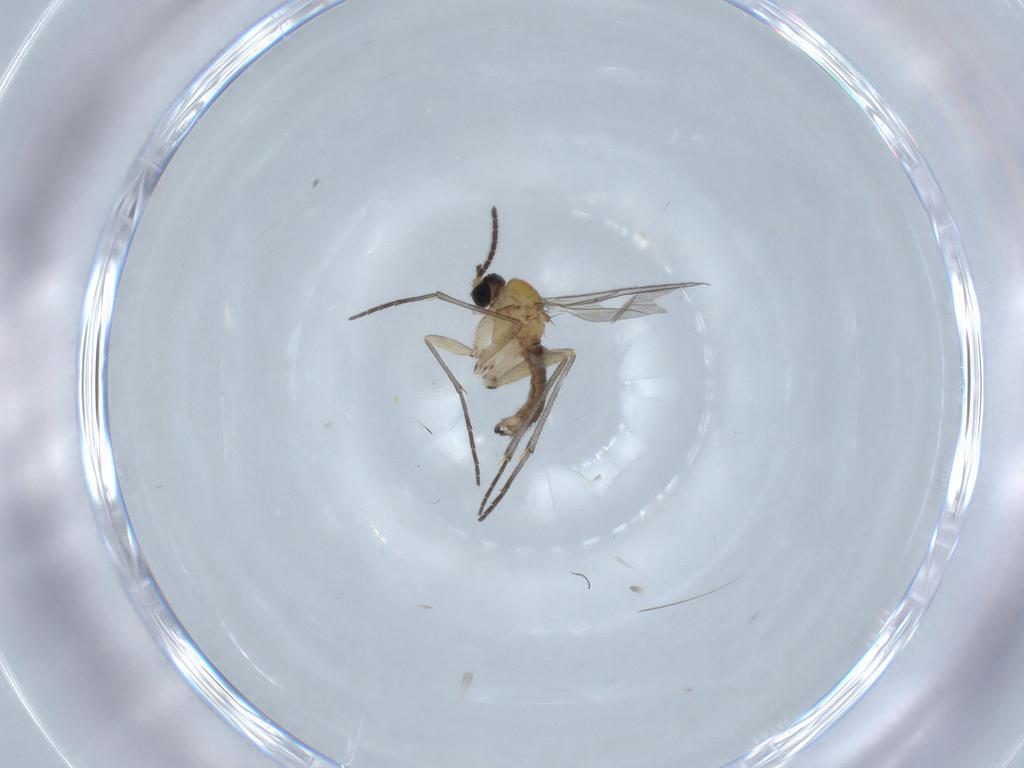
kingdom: Animalia
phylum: Arthropoda
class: Insecta
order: Diptera
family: Sciaridae
